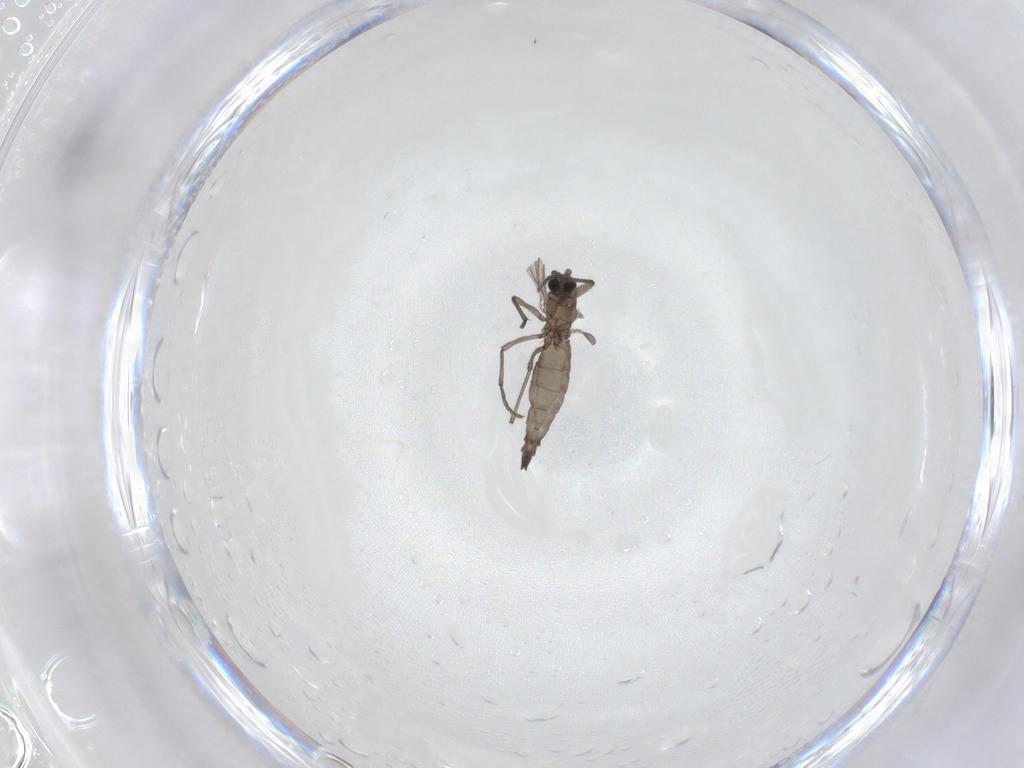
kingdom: Animalia
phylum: Arthropoda
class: Insecta
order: Diptera
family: Sciaridae
